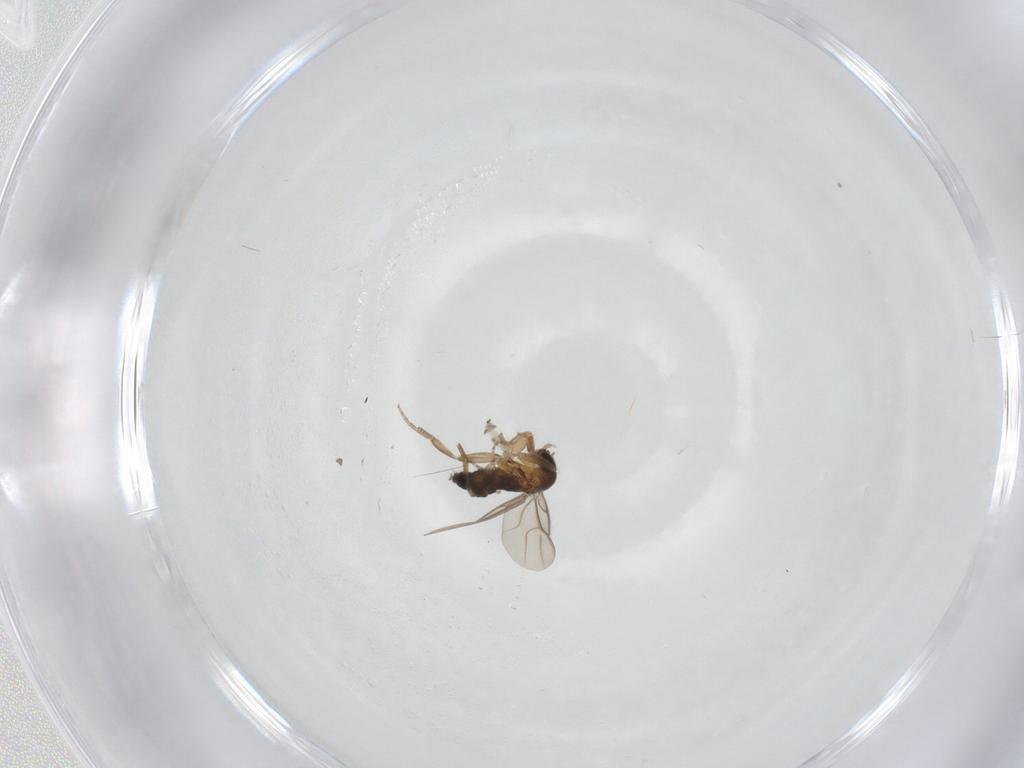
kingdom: Animalia
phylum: Arthropoda
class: Insecta
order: Diptera
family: Phoridae
